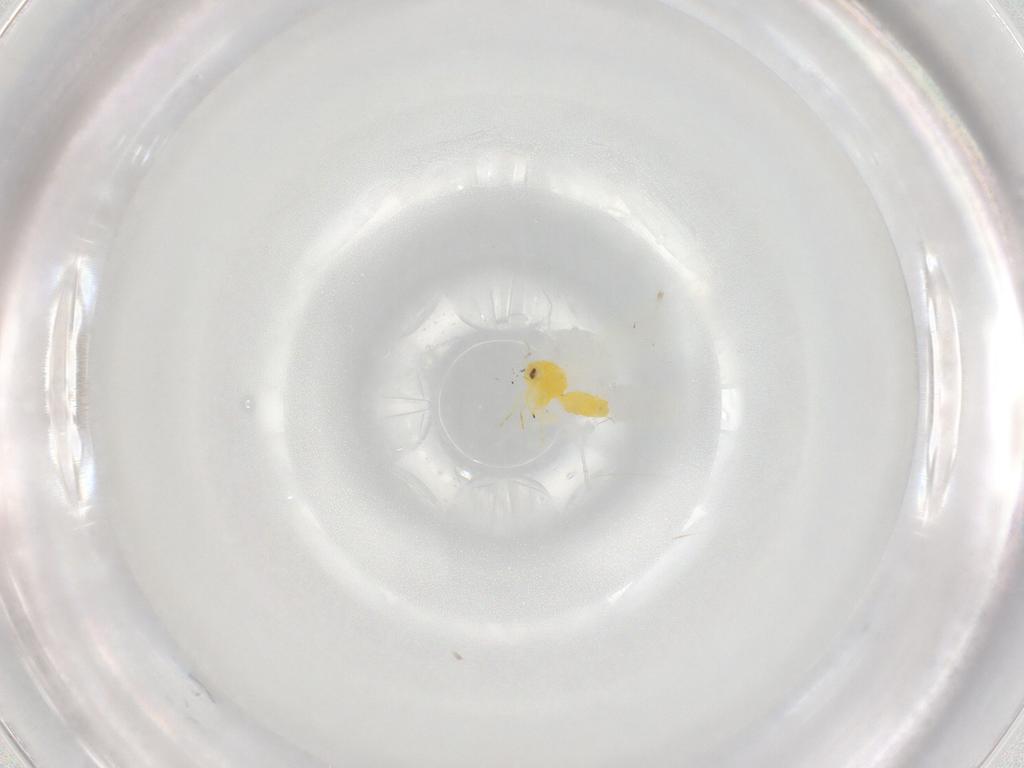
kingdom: Animalia
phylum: Arthropoda
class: Insecta
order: Hemiptera
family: Aleyrodidae
